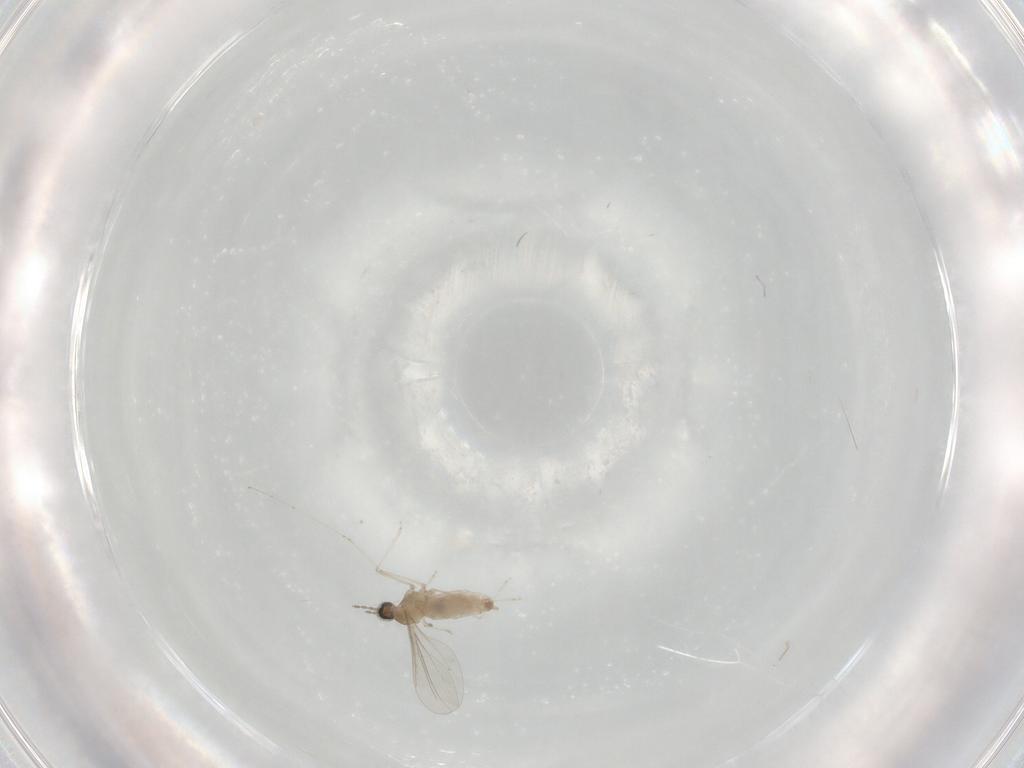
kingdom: Animalia
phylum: Arthropoda
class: Insecta
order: Diptera
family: Cecidomyiidae
